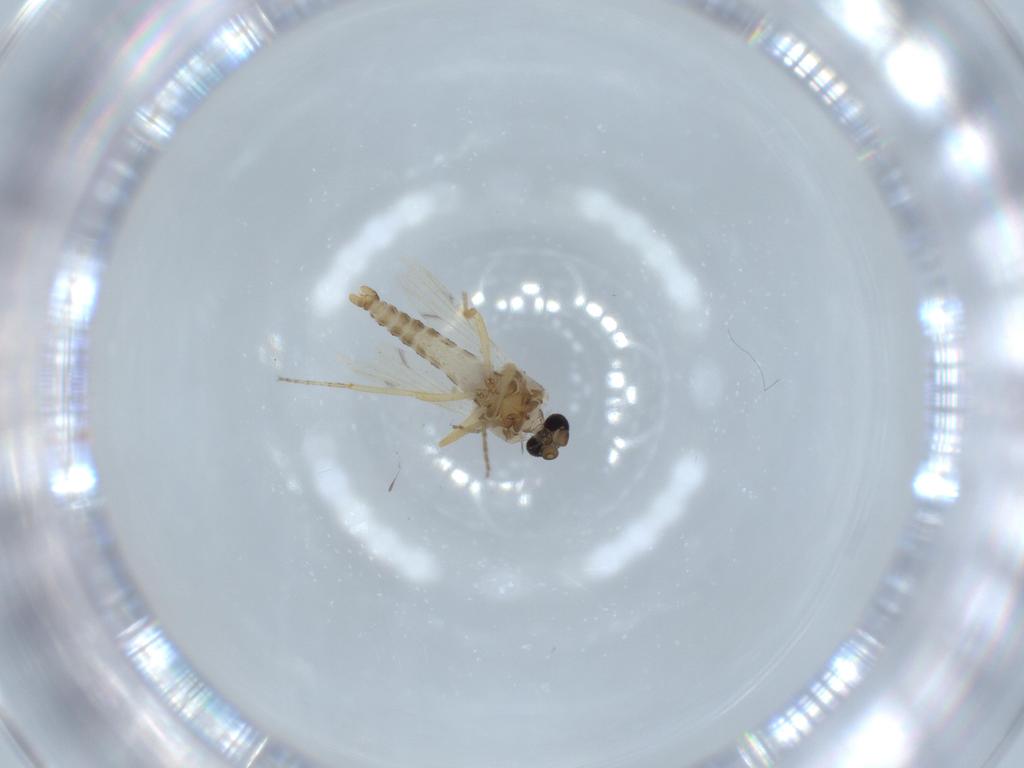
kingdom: Animalia
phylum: Arthropoda
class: Insecta
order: Diptera
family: Ceratopogonidae
